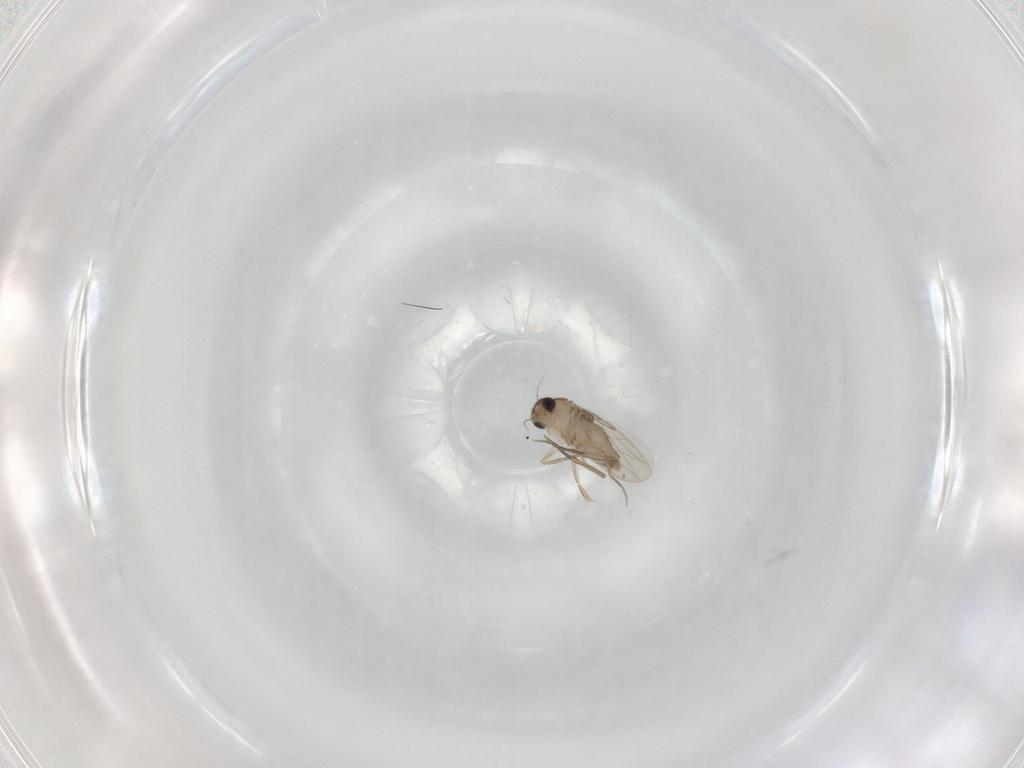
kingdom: Animalia
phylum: Arthropoda
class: Insecta
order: Diptera
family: Phoridae
